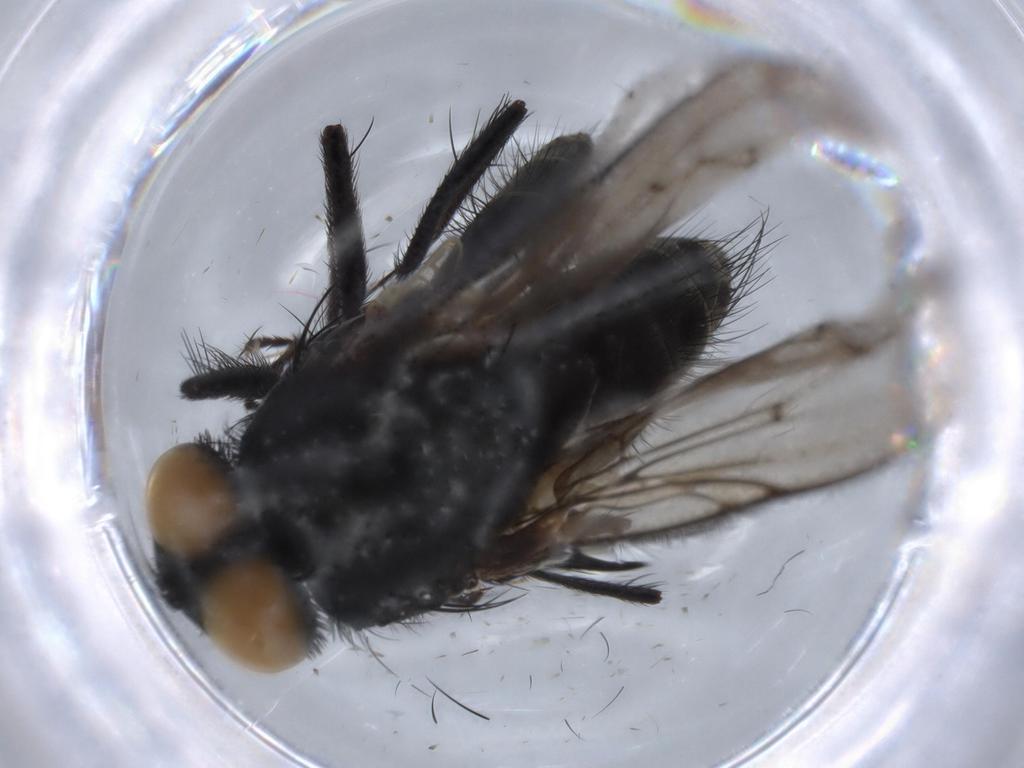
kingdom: Animalia
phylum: Arthropoda
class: Insecta
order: Diptera
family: Muscidae
